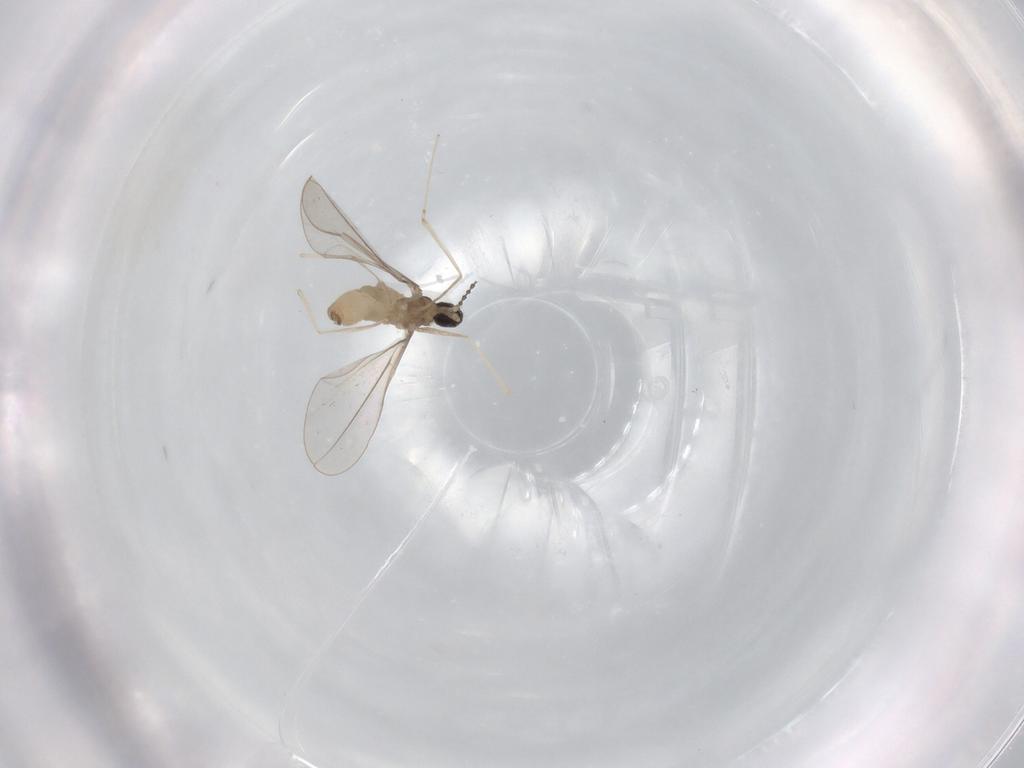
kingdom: Animalia
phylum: Arthropoda
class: Insecta
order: Diptera
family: Cecidomyiidae
